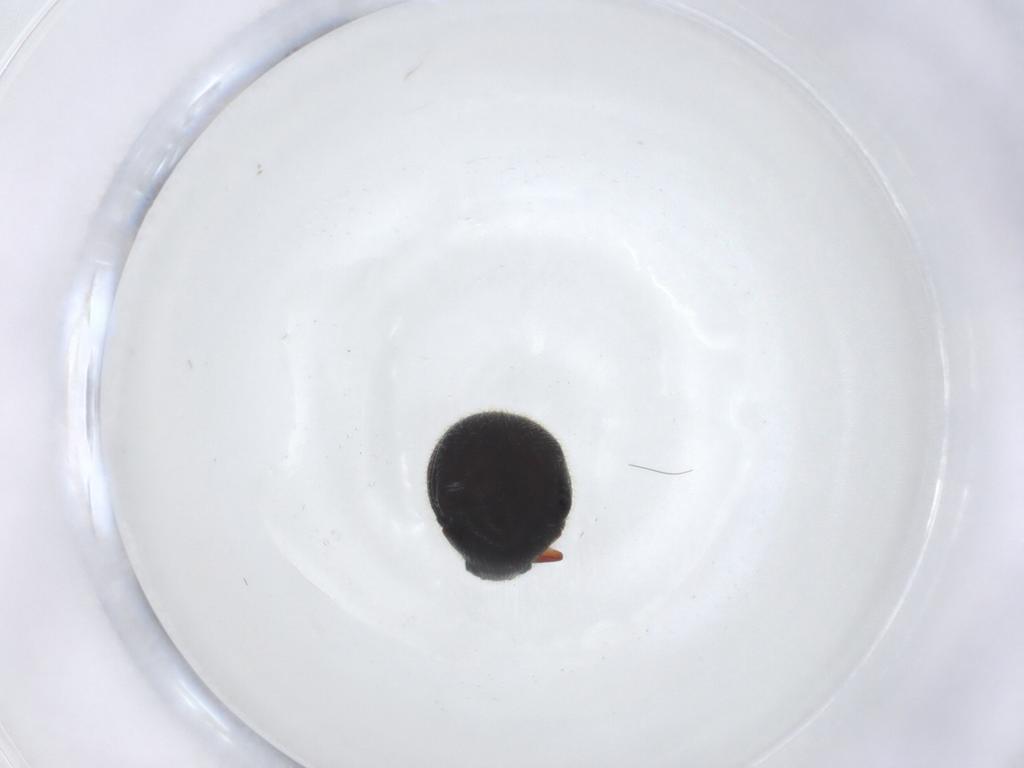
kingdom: Animalia
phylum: Arthropoda
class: Insecta
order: Coleoptera
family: Ptinidae
